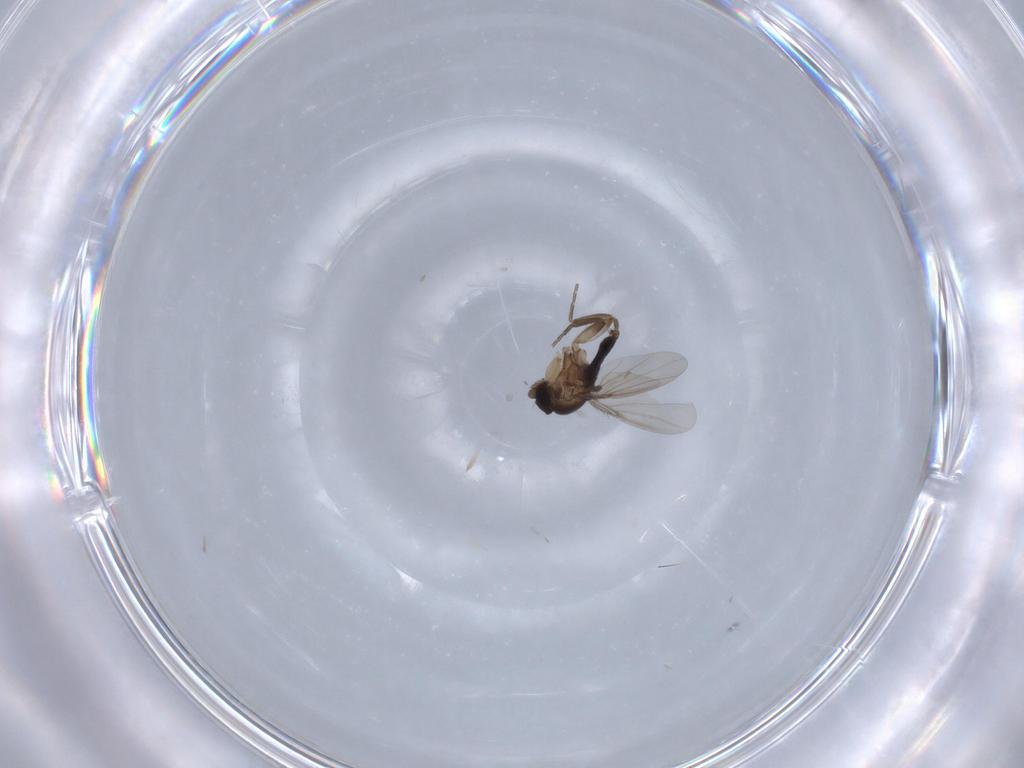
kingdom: Animalia
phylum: Arthropoda
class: Insecta
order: Diptera
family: Phoridae
